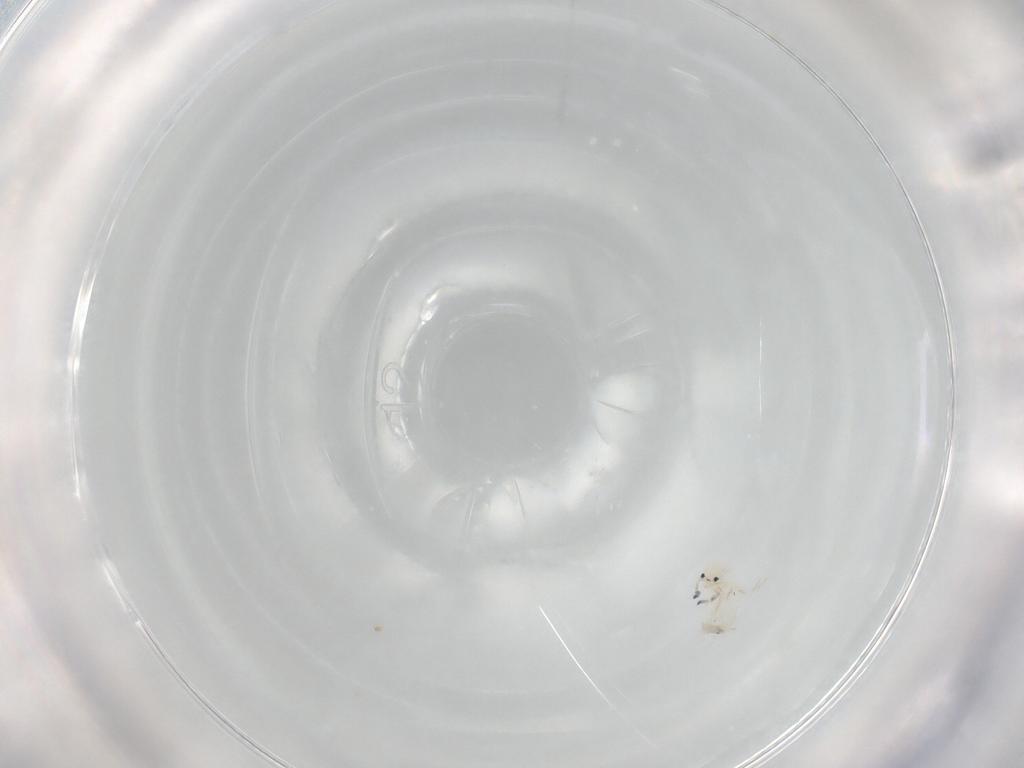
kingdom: Animalia
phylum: Arthropoda
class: Collembola
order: Entomobryomorpha
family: Entomobryidae
